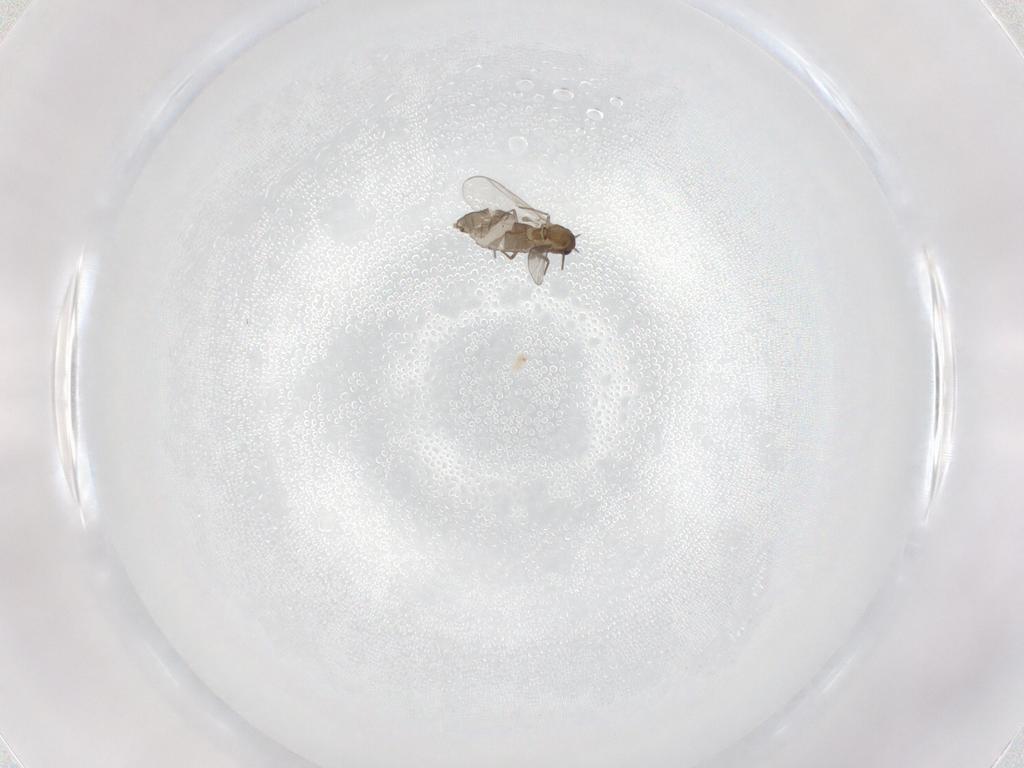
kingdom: Animalia
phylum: Arthropoda
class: Insecta
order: Diptera
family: Chironomidae
